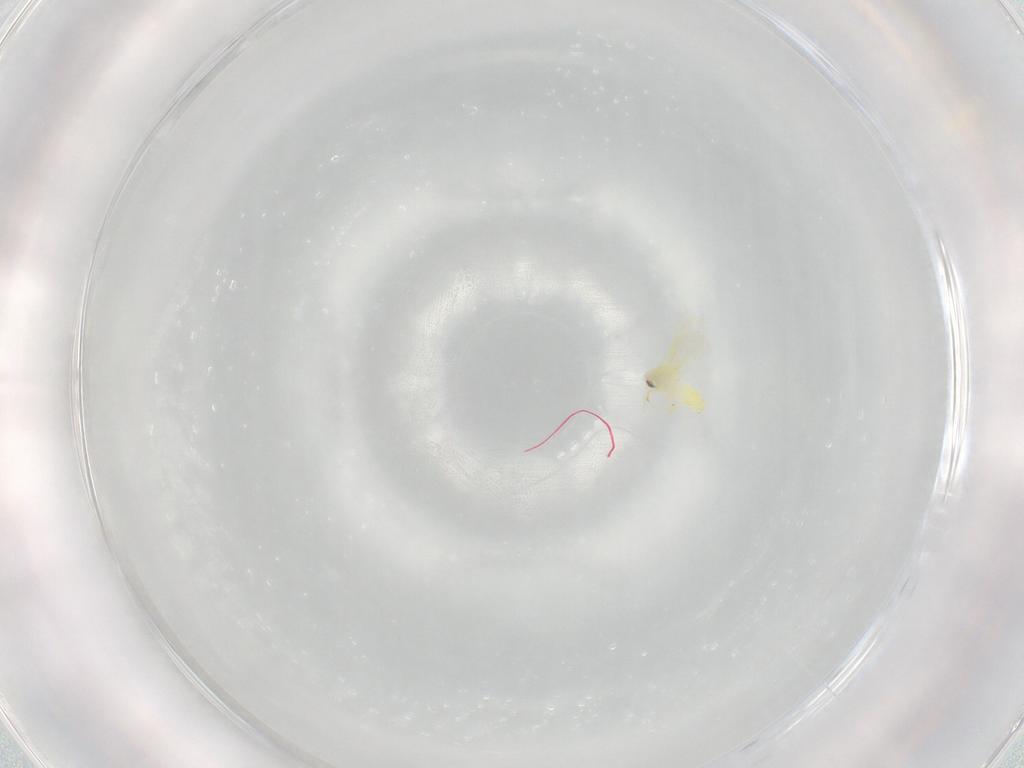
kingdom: Animalia
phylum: Arthropoda
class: Insecta
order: Hemiptera
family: Aleyrodidae
